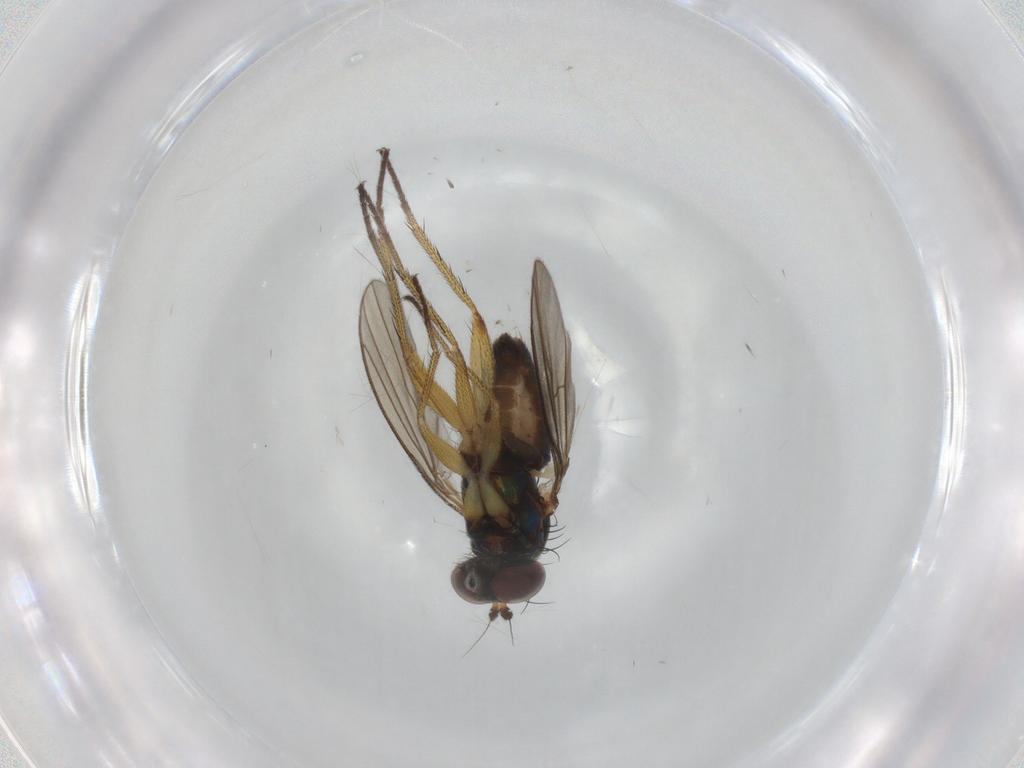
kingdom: Animalia
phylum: Arthropoda
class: Insecta
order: Diptera
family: Dolichopodidae
